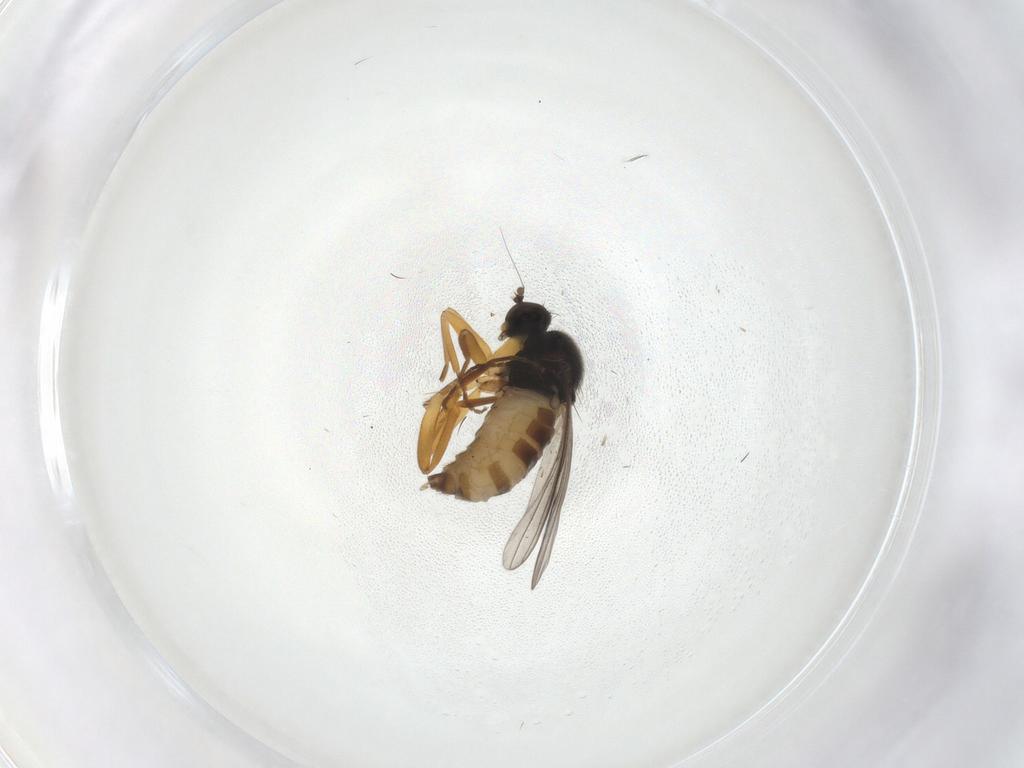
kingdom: Animalia
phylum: Arthropoda
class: Insecta
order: Diptera
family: Hybotidae
